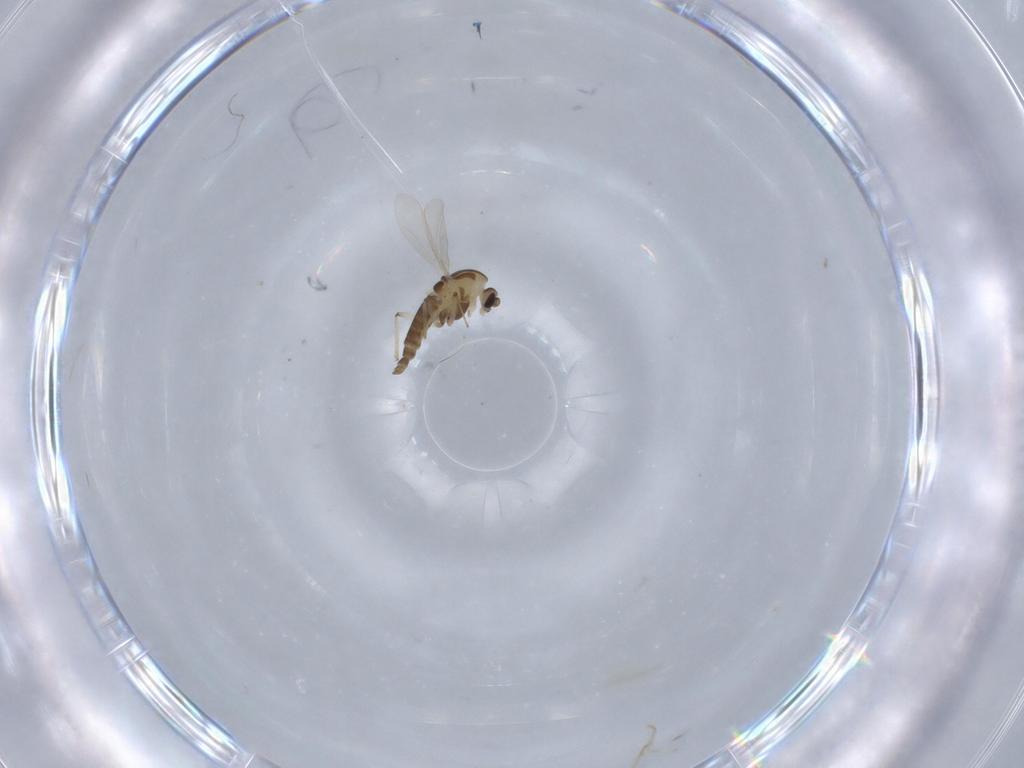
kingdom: Animalia
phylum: Arthropoda
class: Insecta
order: Diptera
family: Chironomidae
